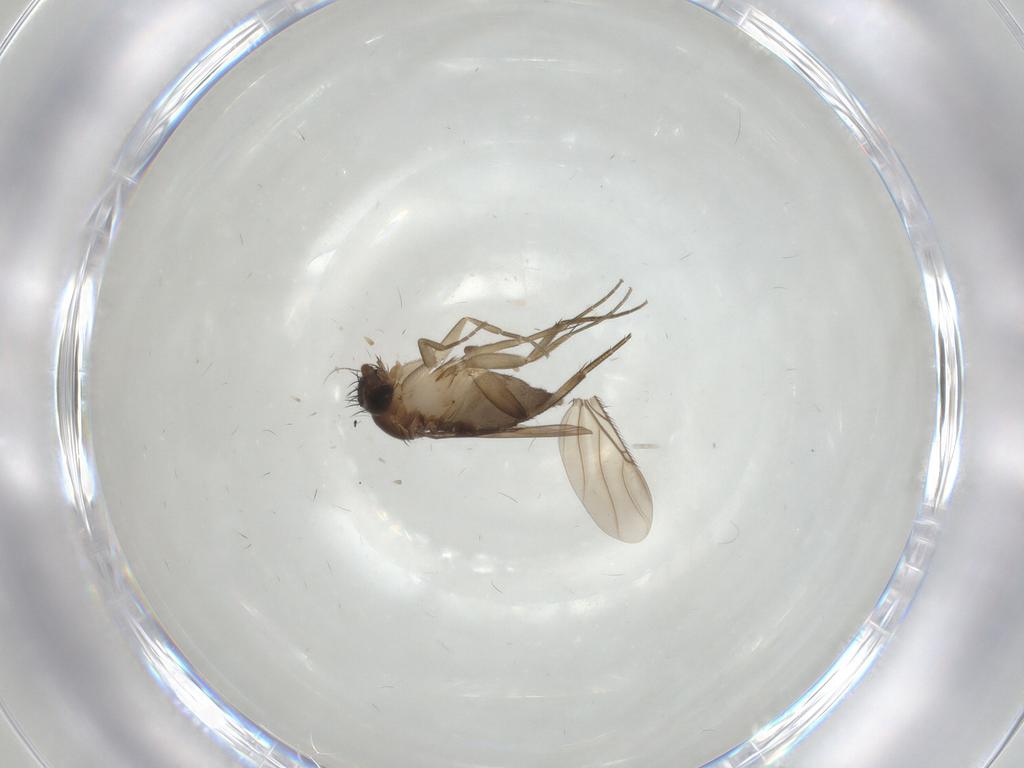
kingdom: Animalia
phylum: Arthropoda
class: Insecta
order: Diptera
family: Phoridae
